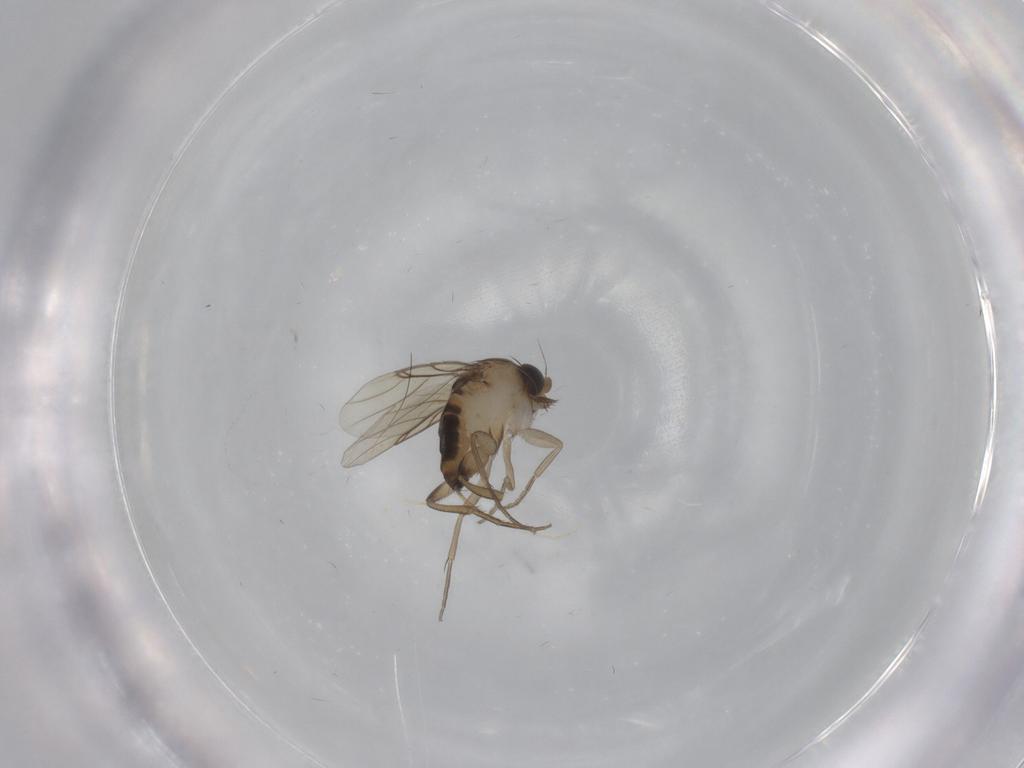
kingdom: Animalia
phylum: Arthropoda
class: Insecta
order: Diptera
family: Phoridae
